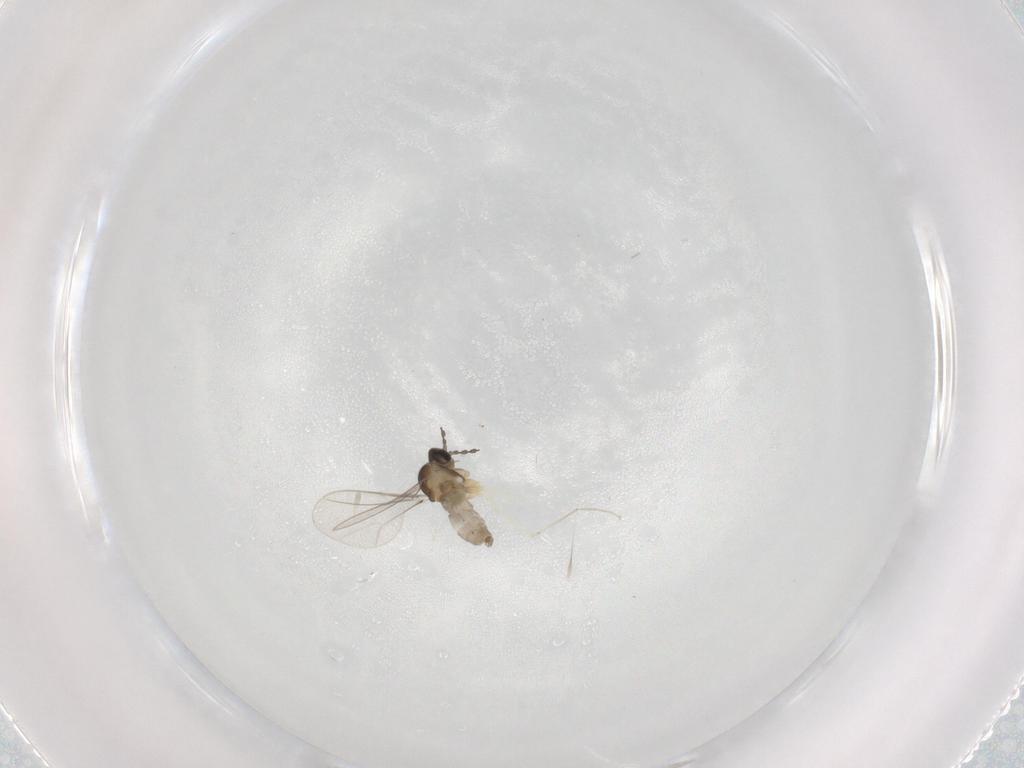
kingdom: Animalia
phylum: Arthropoda
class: Insecta
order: Diptera
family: Cecidomyiidae
